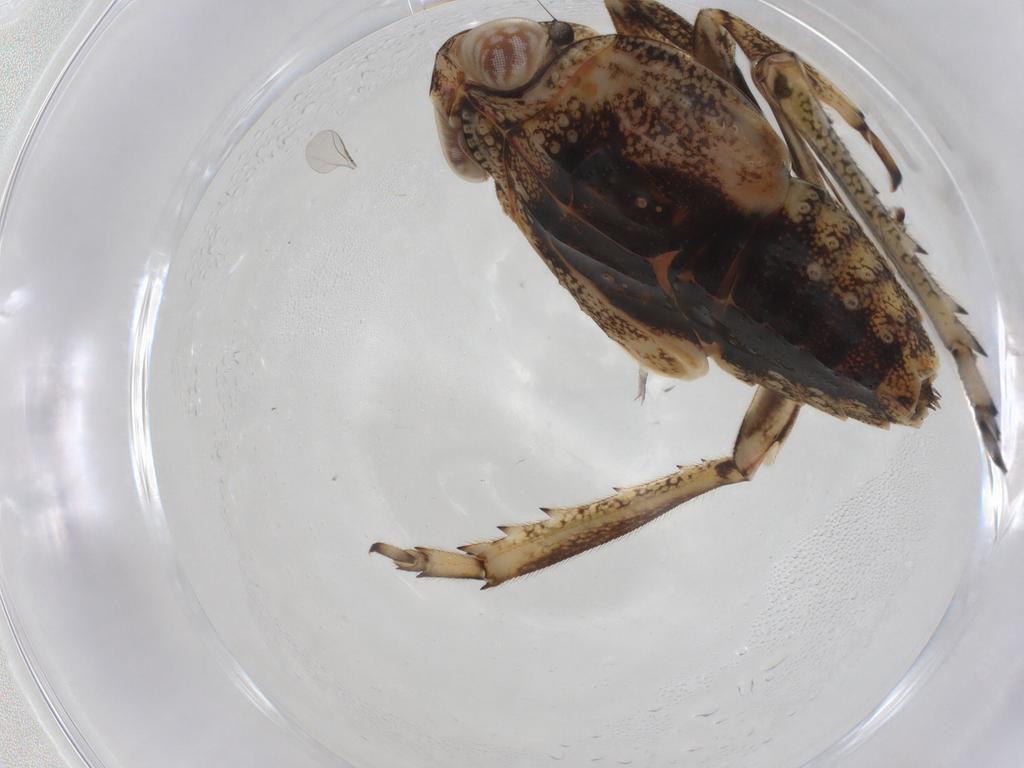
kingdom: Animalia
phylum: Arthropoda
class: Insecta
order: Hemiptera
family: Issidae
